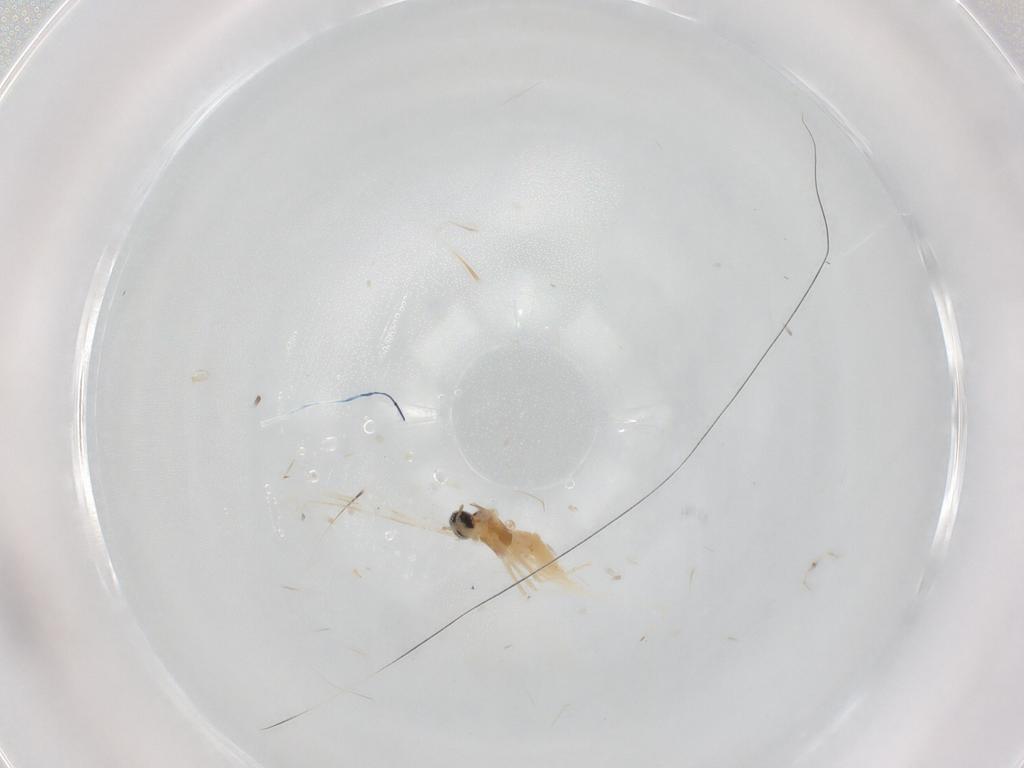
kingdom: Animalia
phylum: Arthropoda
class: Insecta
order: Diptera
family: Cecidomyiidae
